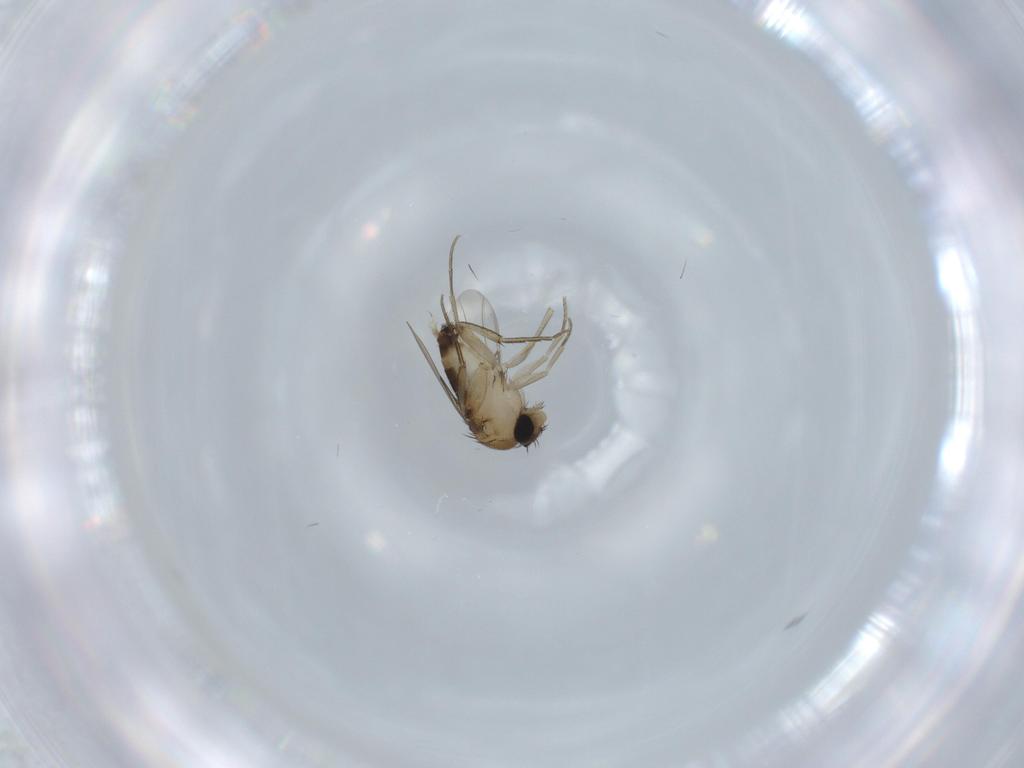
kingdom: Animalia
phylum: Arthropoda
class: Insecta
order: Diptera
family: Phoridae
